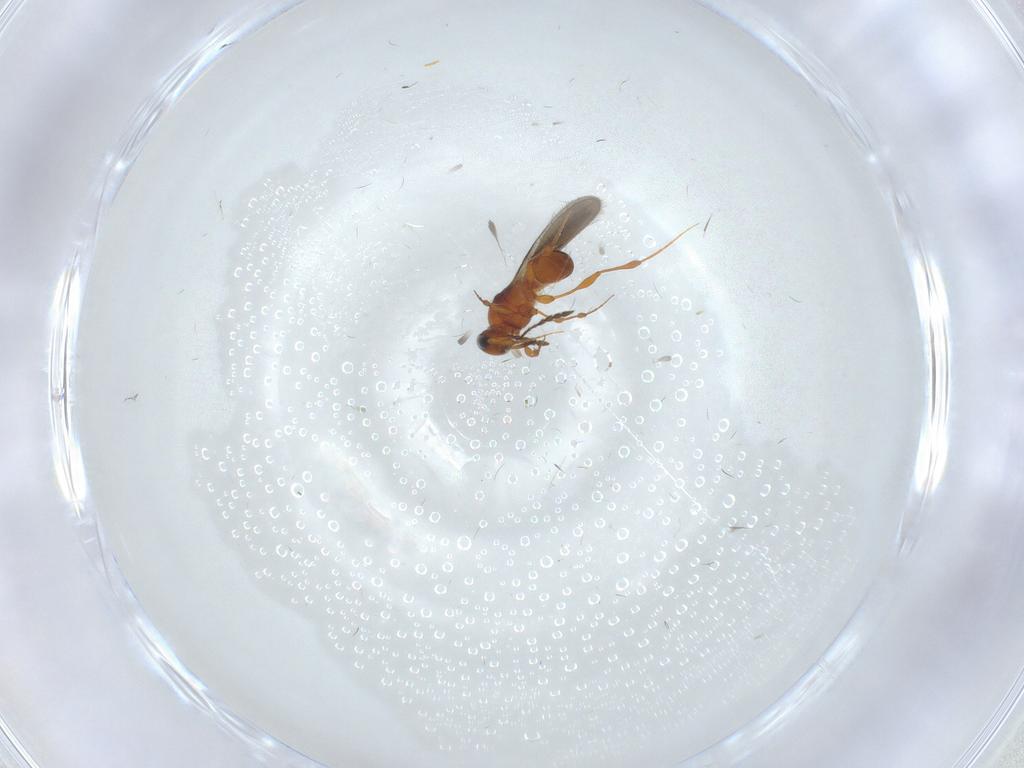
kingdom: Animalia
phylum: Arthropoda
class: Insecta
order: Hymenoptera
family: Platygastridae
